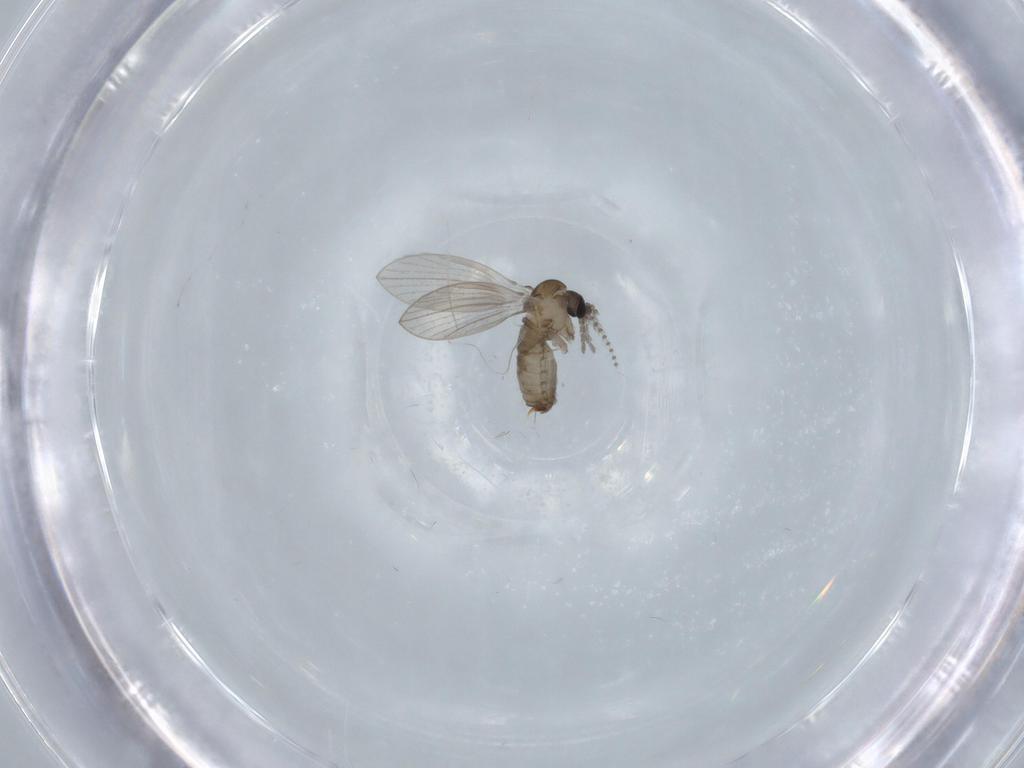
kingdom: Animalia
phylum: Arthropoda
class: Insecta
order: Diptera
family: Psychodidae
